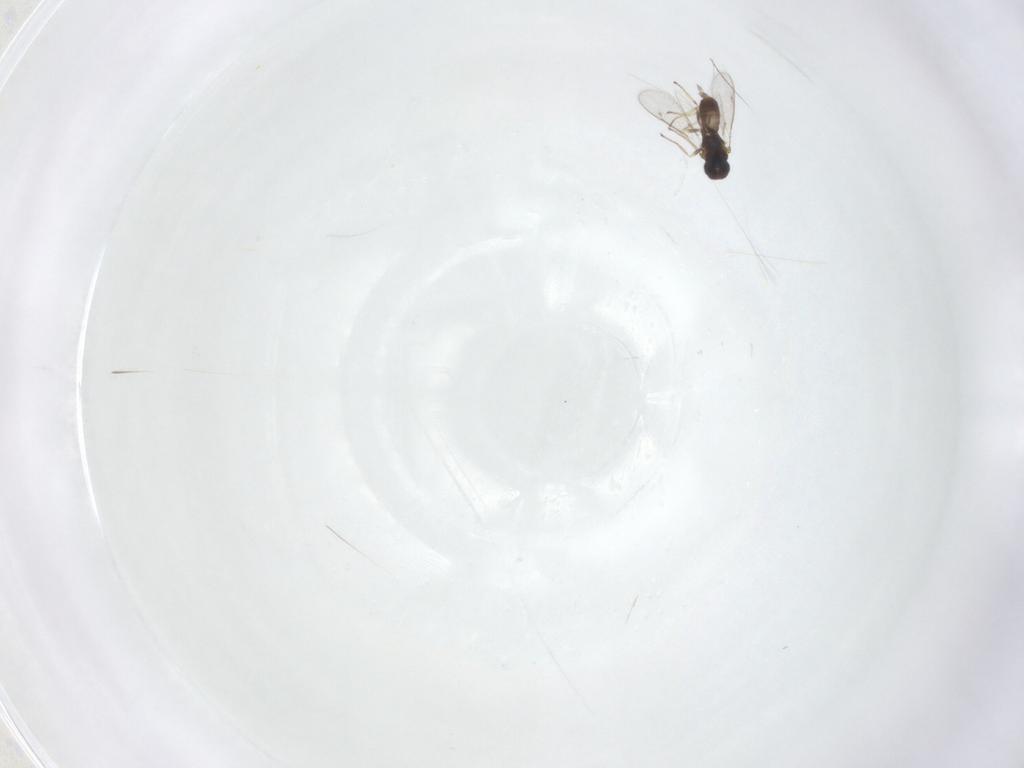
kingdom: Animalia
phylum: Arthropoda
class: Insecta
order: Hymenoptera
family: Formicidae
